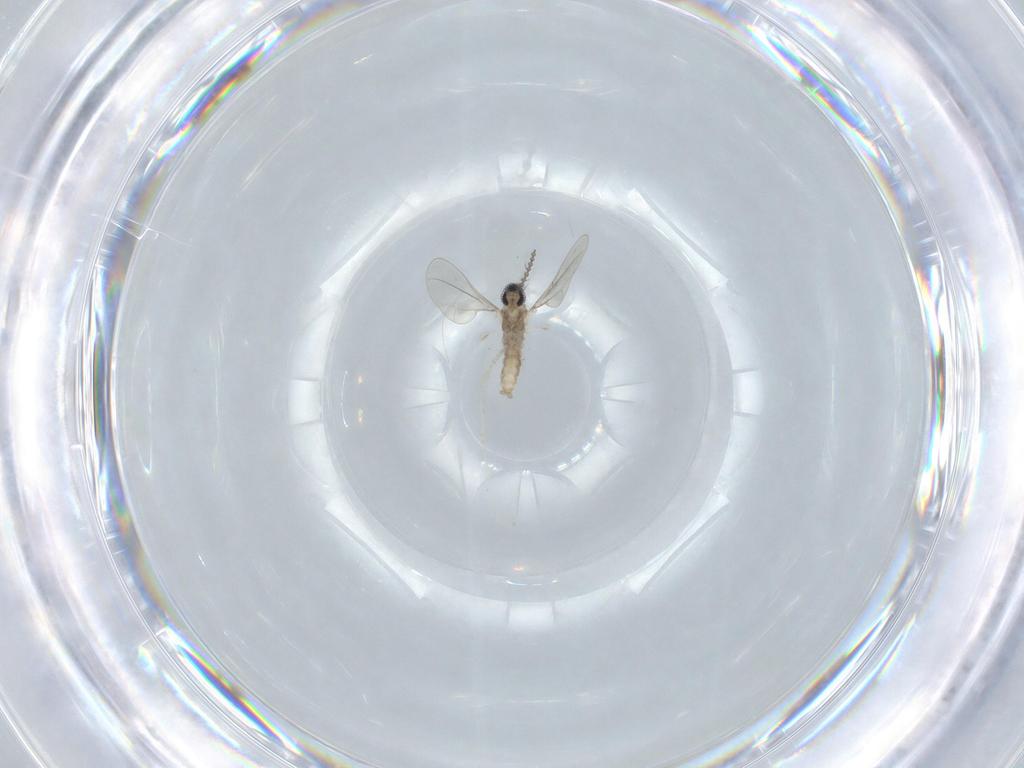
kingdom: Animalia
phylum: Arthropoda
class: Insecta
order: Diptera
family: Cecidomyiidae
